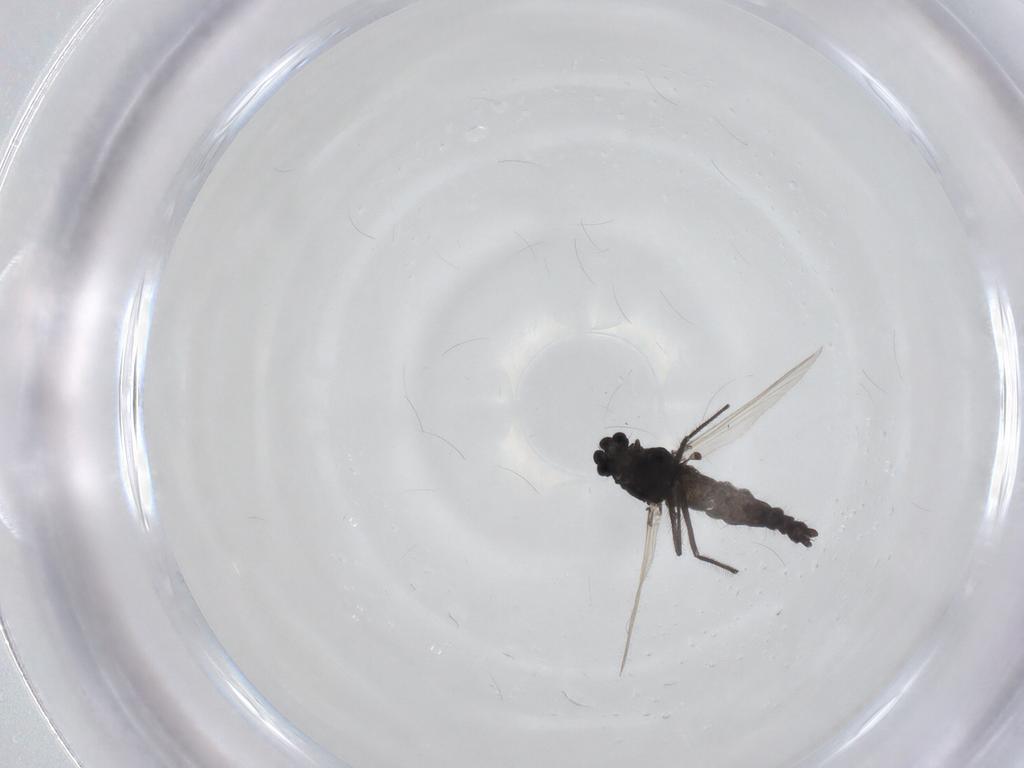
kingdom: Animalia
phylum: Arthropoda
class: Insecta
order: Diptera
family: Chironomidae
